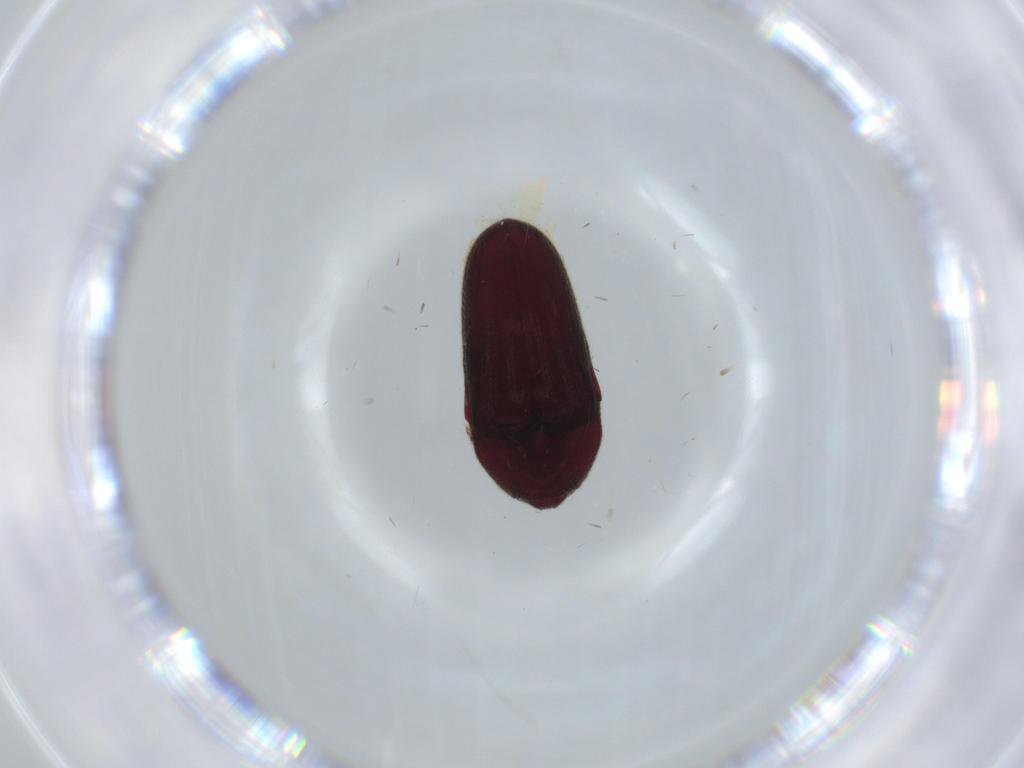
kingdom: Animalia
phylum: Arthropoda
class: Insecta
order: Coleoptera
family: Throscidae
